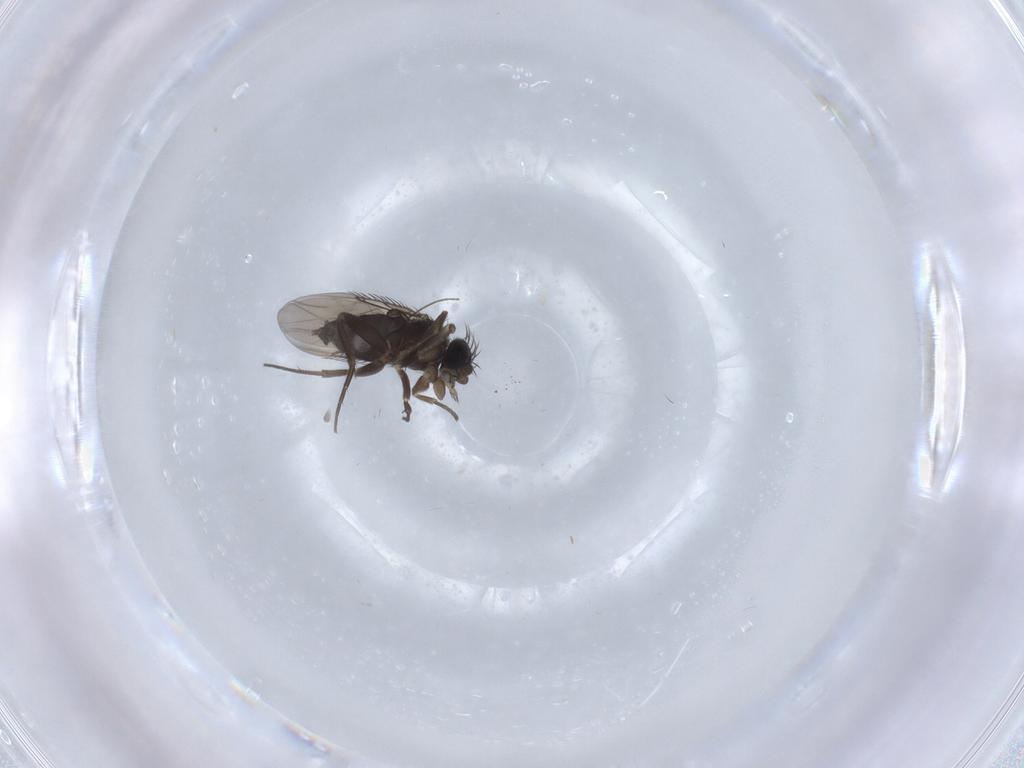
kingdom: Animalia
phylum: Arthropoda
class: Insecta
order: Diptera
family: Phoridae
